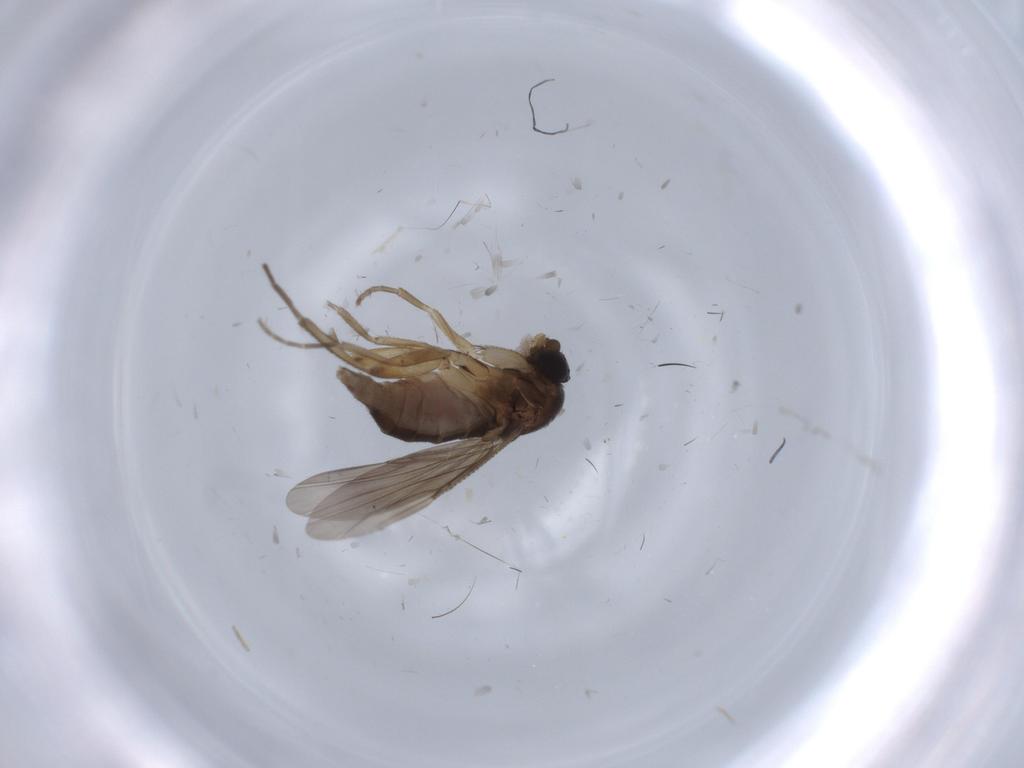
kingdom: Animalia
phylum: Arthropoda
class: Insecta
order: Diptera
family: Phoridae
